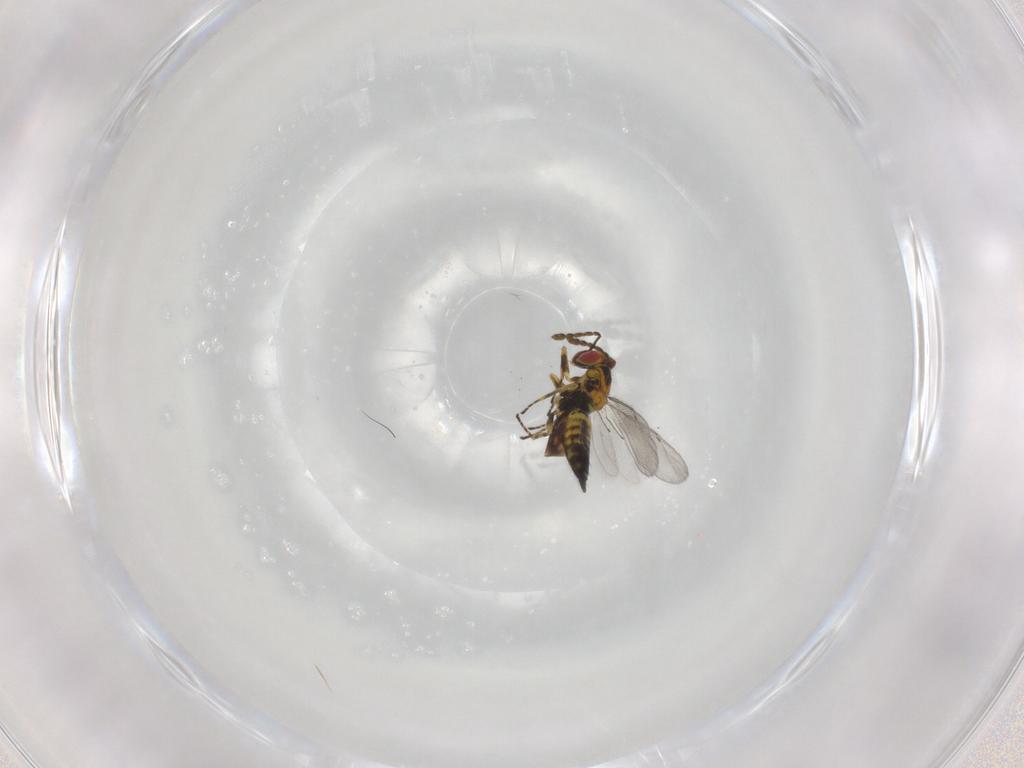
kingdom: Animalia
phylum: Arthropoda
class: Insecta
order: Hymenoptera
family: Eulophidae
